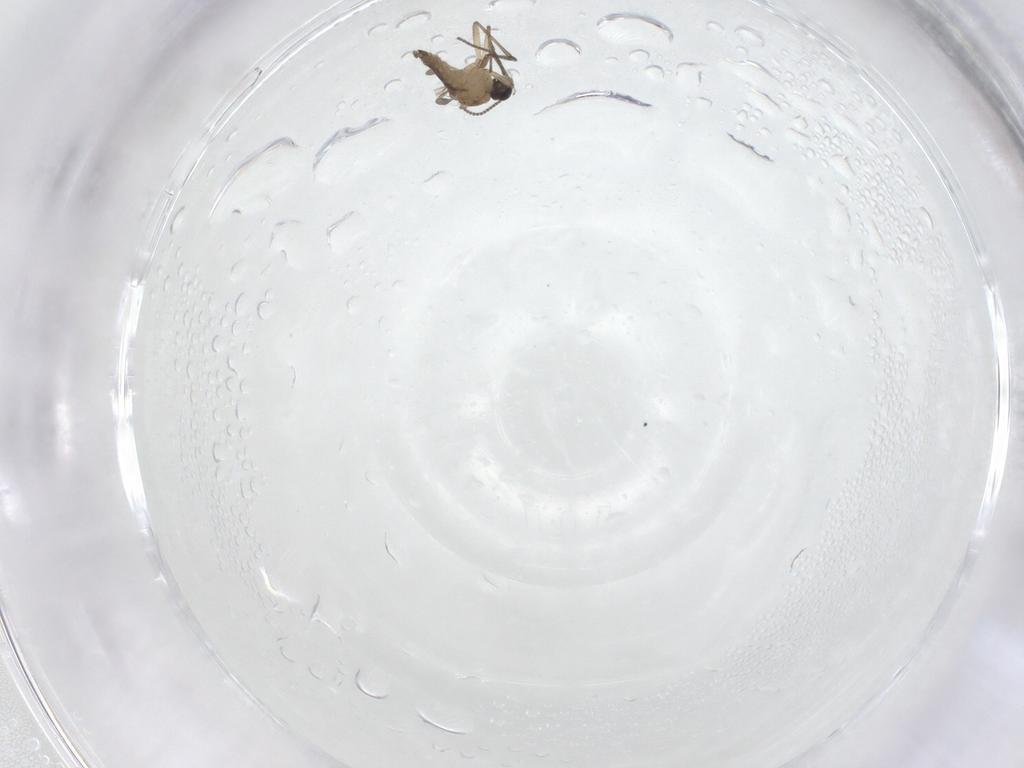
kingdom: Animalia
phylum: Arthropoda
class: Insecta
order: Diptera
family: Sciaridae
